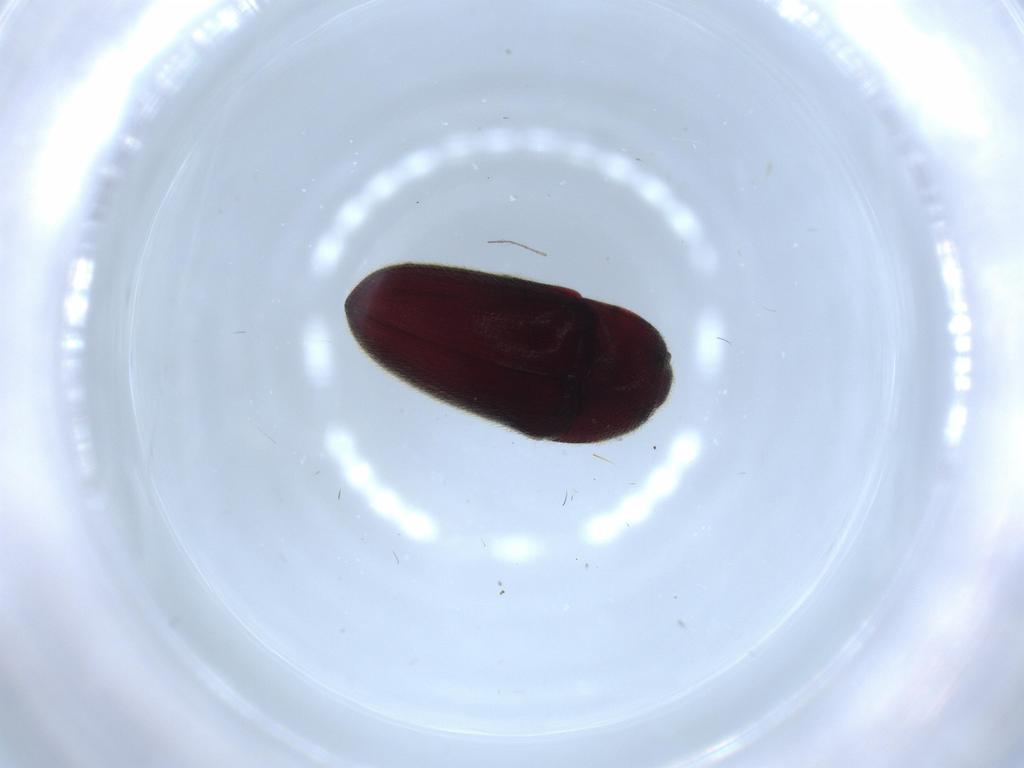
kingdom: Animalia
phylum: Arthropoda
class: Insecta
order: Coleoptera
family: Throscidae
